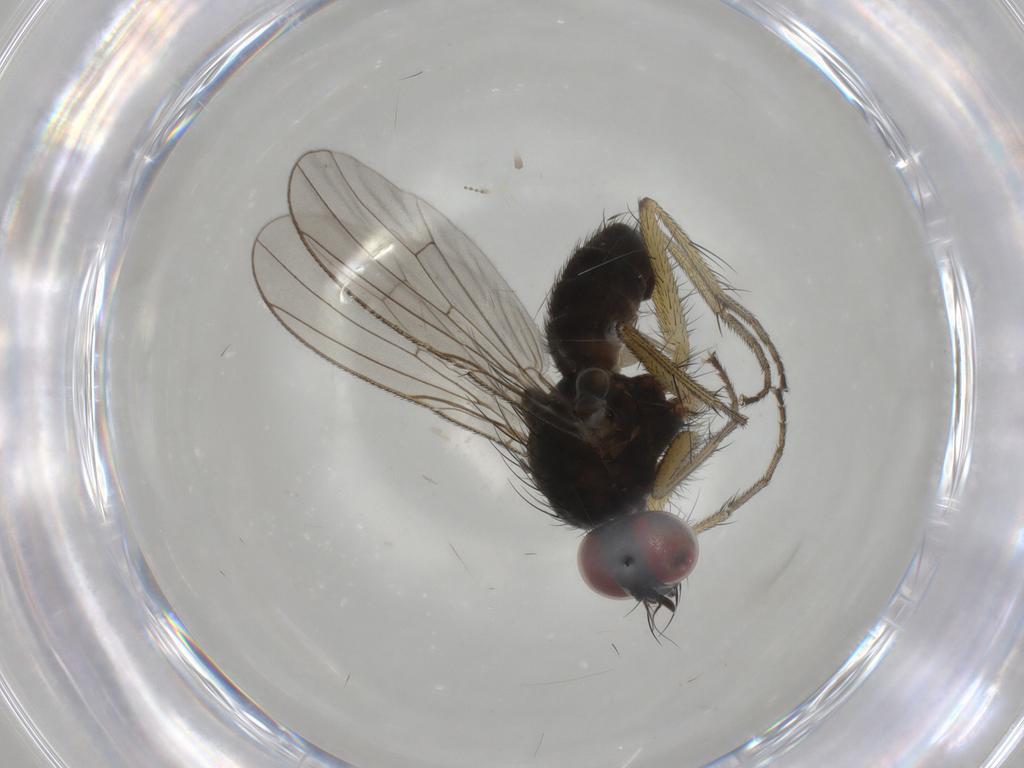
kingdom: Animalia
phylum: Arthropoda
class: Insecta
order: Diptera
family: Muscidae
